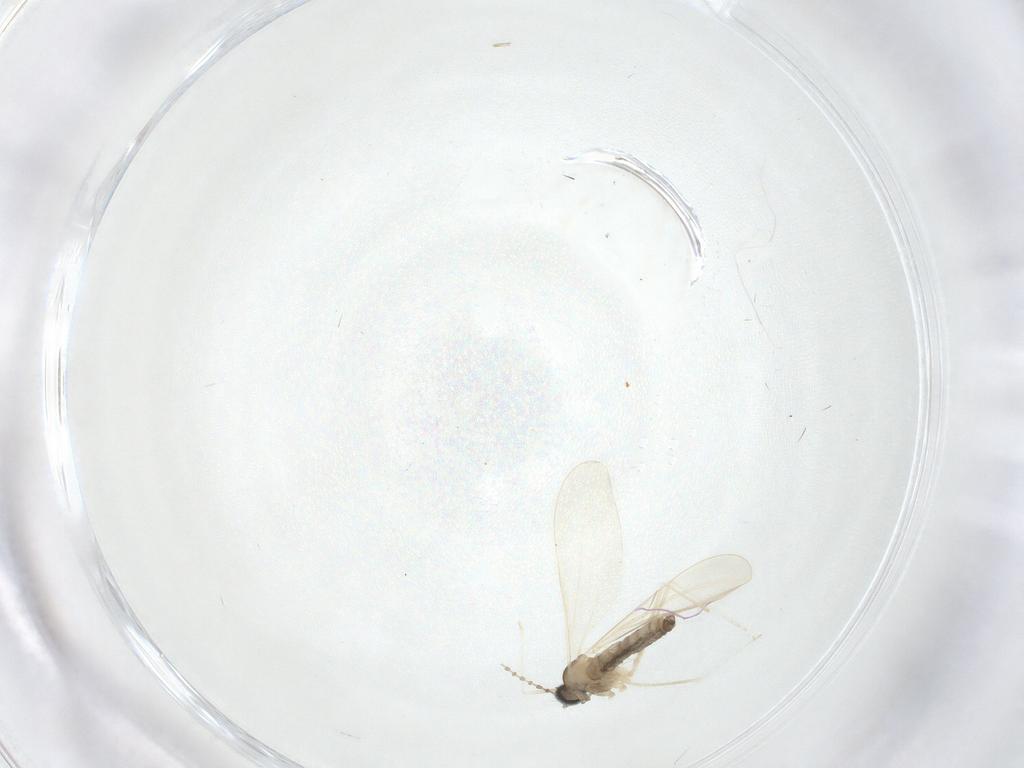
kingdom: Animalia
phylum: Arthropoda
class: Insecta
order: Diptera
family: Cecidomyiidae
